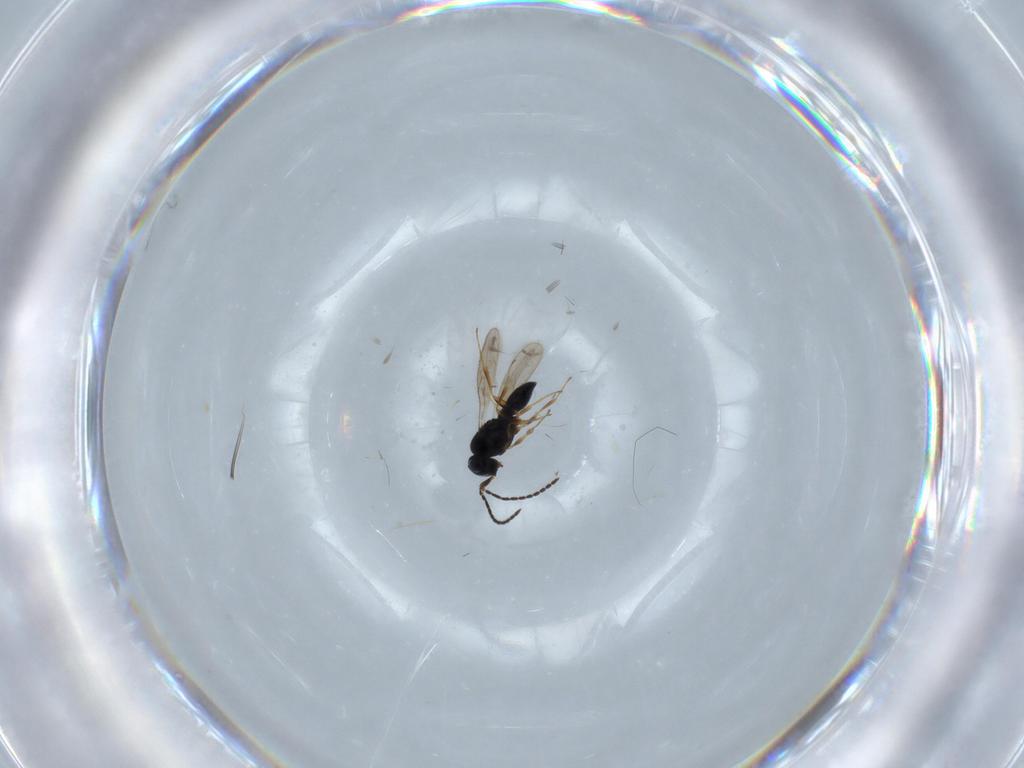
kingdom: Animalia
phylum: Arthropoda
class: Insecta
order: Hymenoptera
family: Scelionidae
